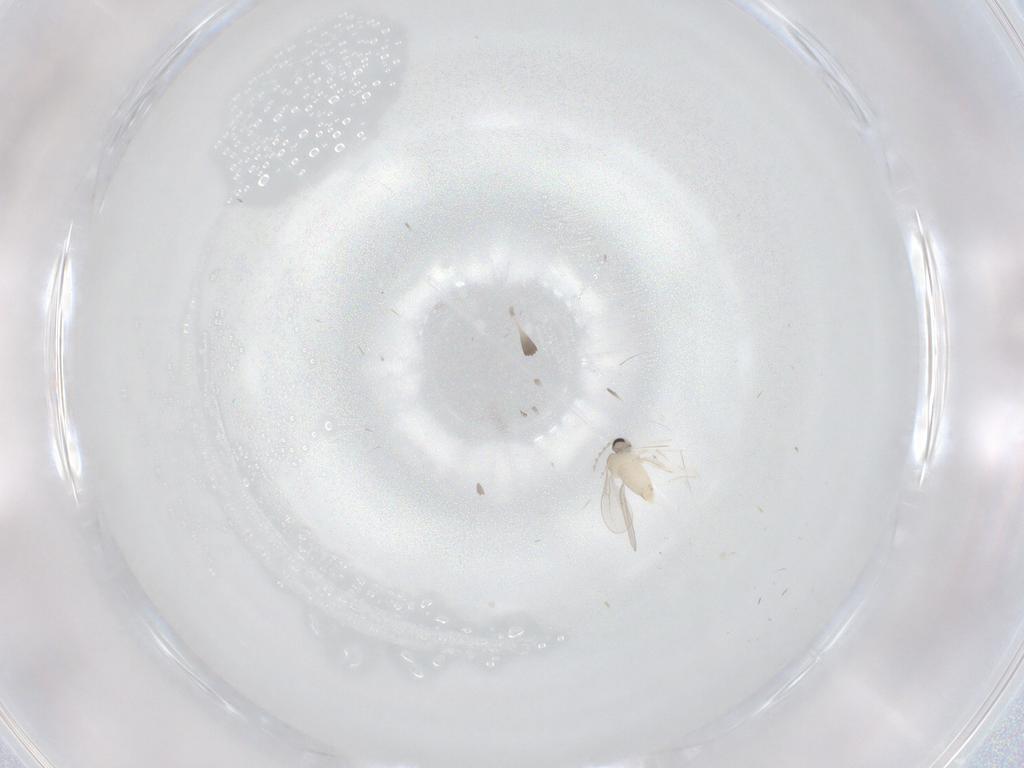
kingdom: Animalia
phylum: Arthropoda
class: Insecta
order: Diptera
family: Cecidomyiidae
